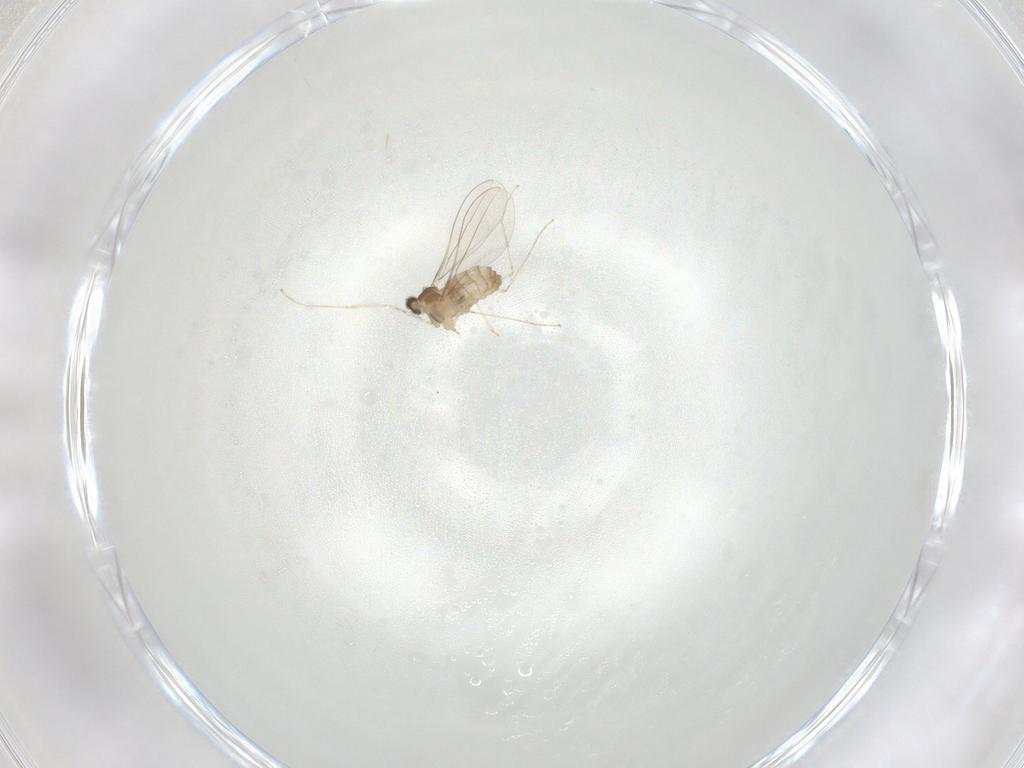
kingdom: Animalia
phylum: Arthropoda
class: Insecta
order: Diptera
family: Cecidomyiidae
